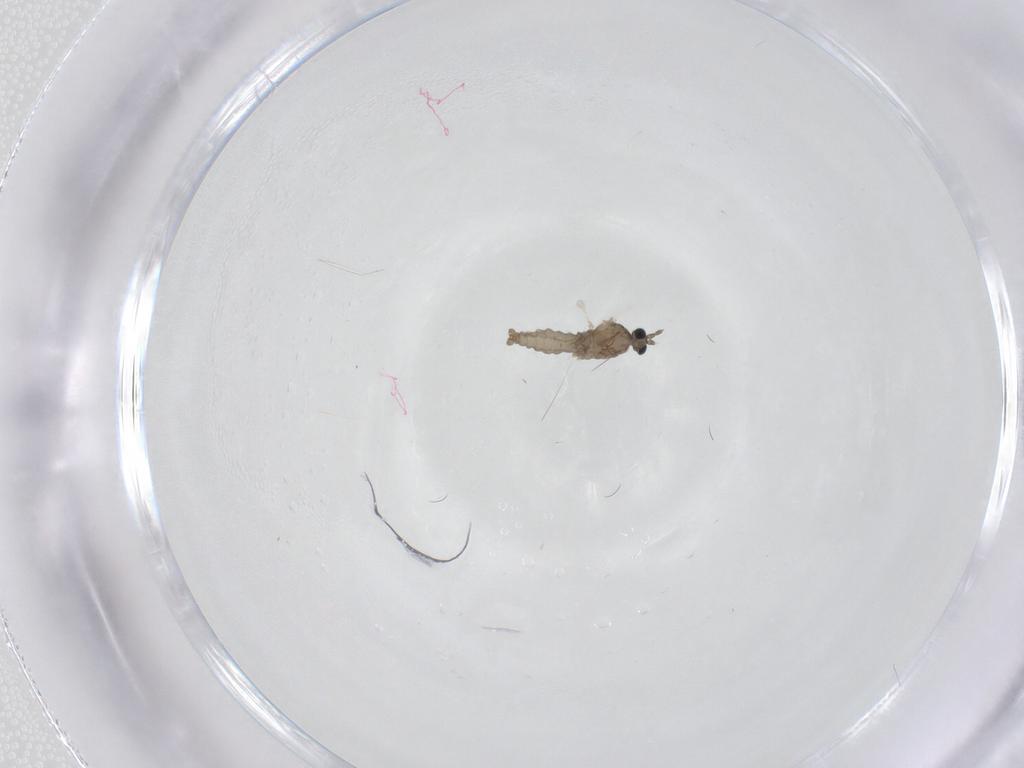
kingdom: Animalia
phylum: Arthropoda
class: Insecta
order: Diptera
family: Cecidomyiidae
